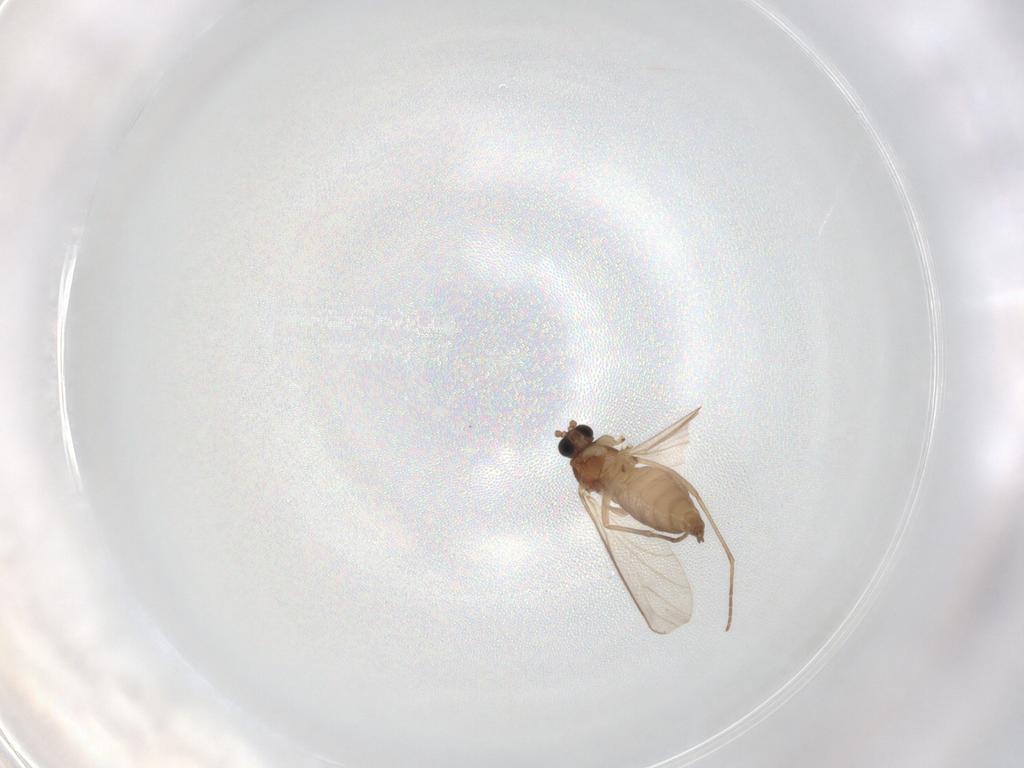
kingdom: Animalia
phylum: Arthropoda
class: Insecta
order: Diptera
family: Sciaridae
